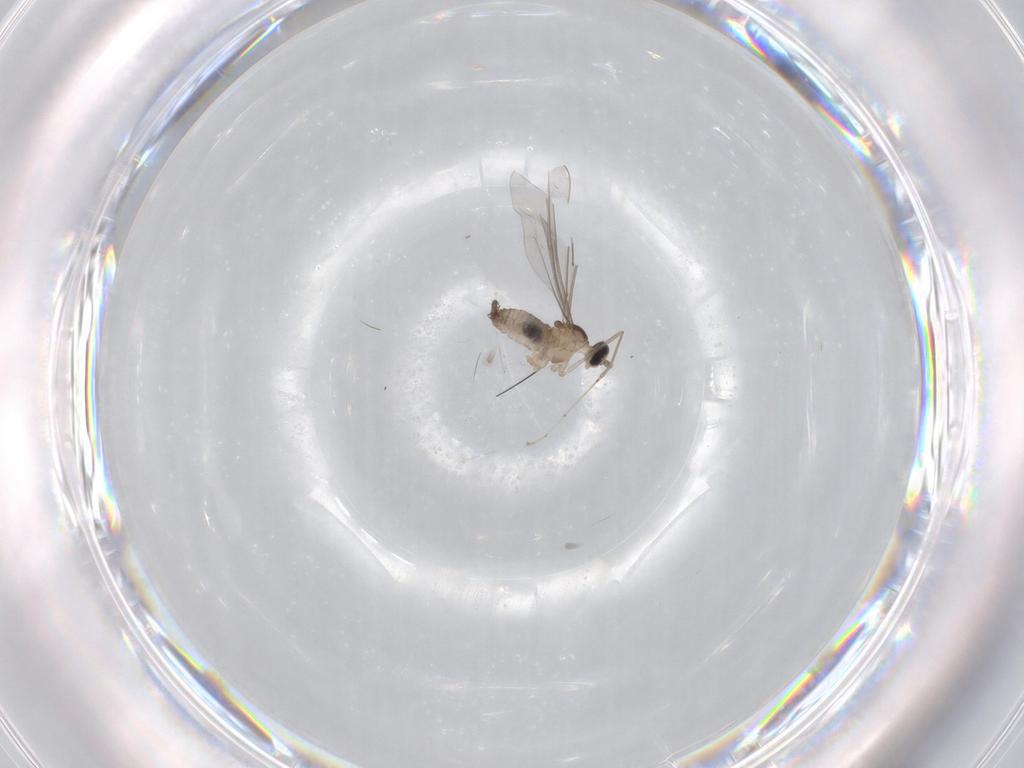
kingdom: Animalia
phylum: Arthropoda
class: Insecta
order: Diptera
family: Cecidomyiidae
